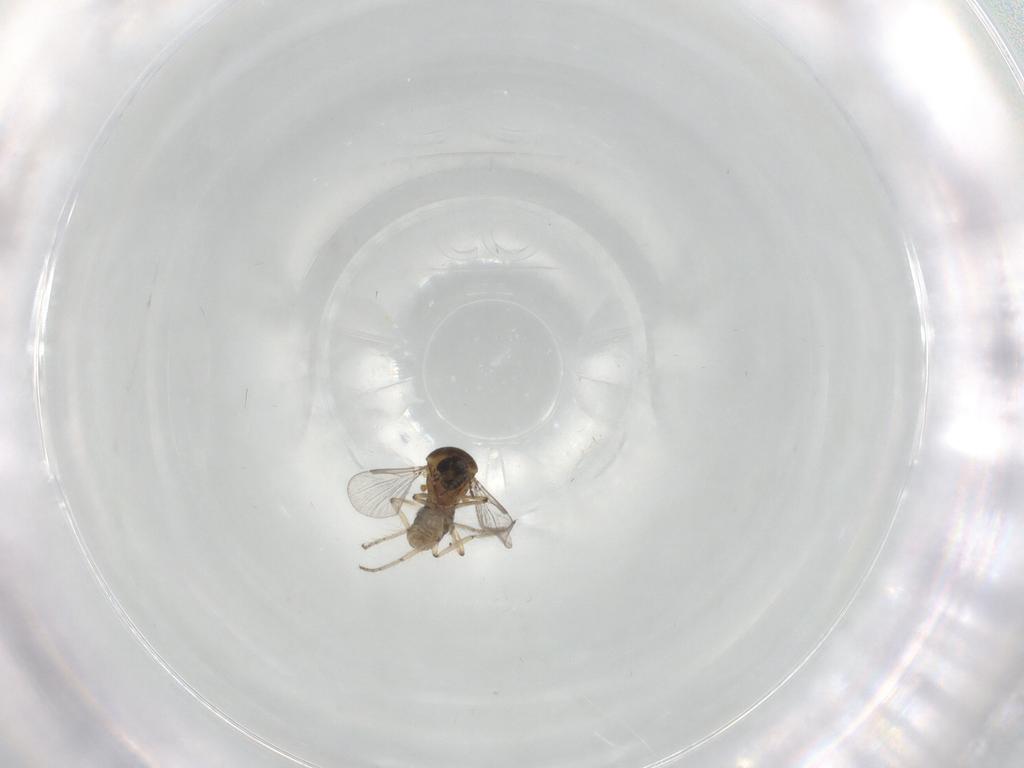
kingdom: Animalia
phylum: Arthropoda
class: Insecta
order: Diptera
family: Ceratopogonidae
